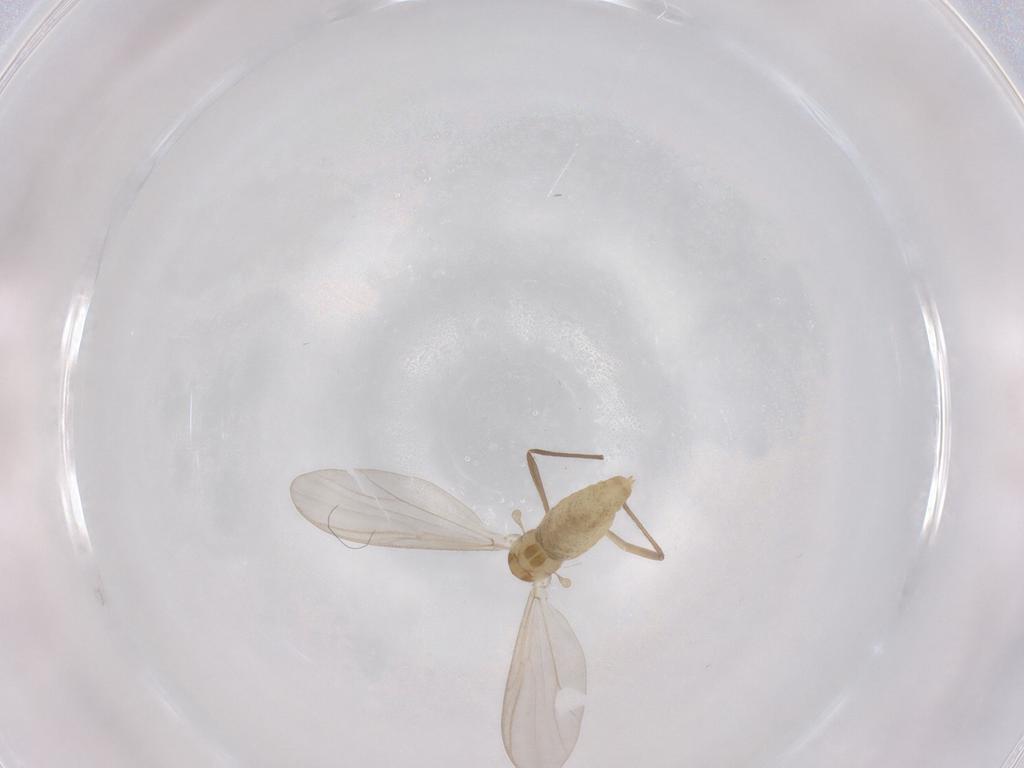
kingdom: Animalia
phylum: Arthropoda
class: Insecta
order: Diptera
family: Chironomidae
